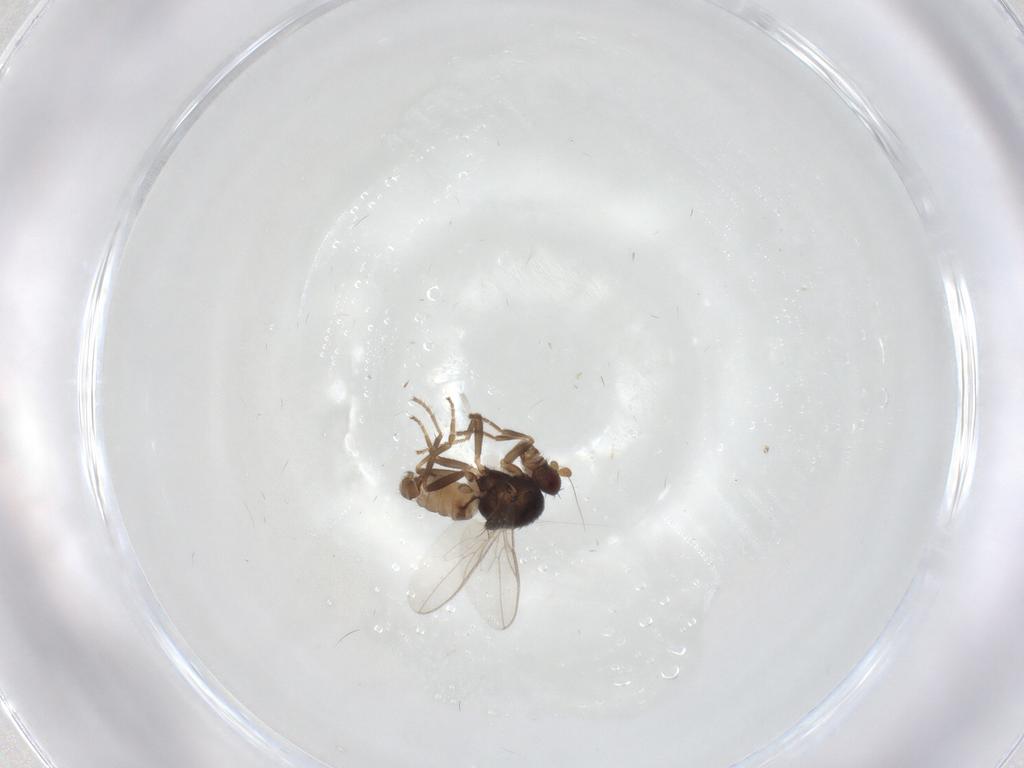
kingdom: Animalia
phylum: Arthropoda
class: Insecta
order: Diptera
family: Sphaeroceridae
